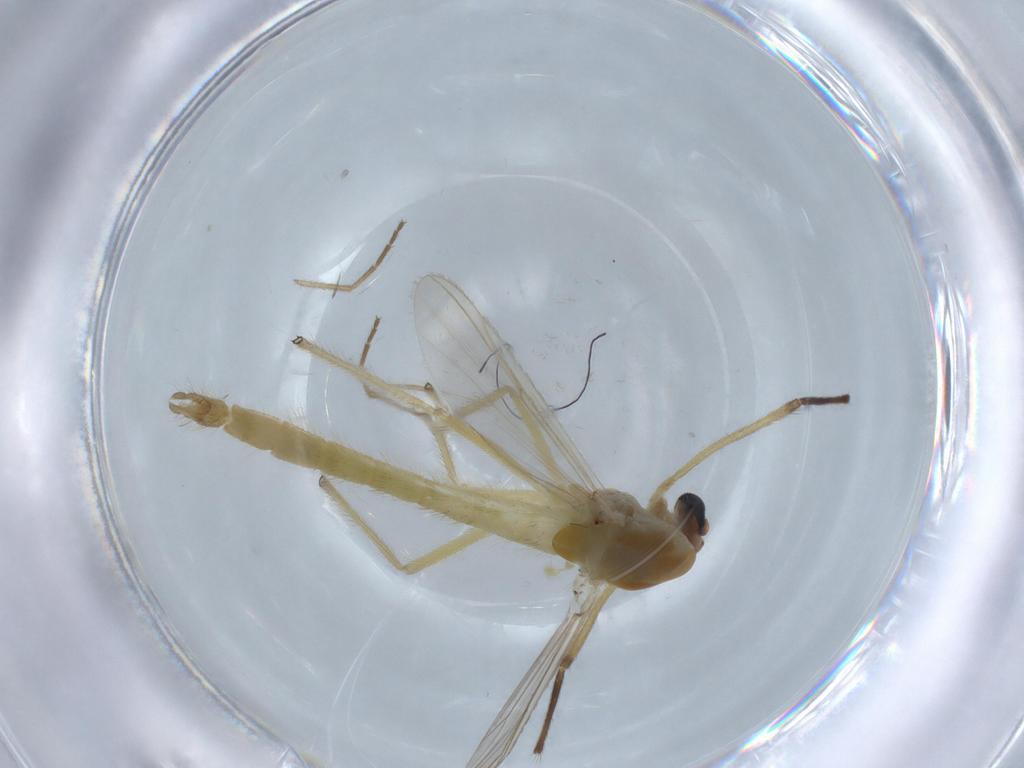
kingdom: Animalia
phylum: Arthropoda
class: Insecta
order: Diptera
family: Chironomidae
